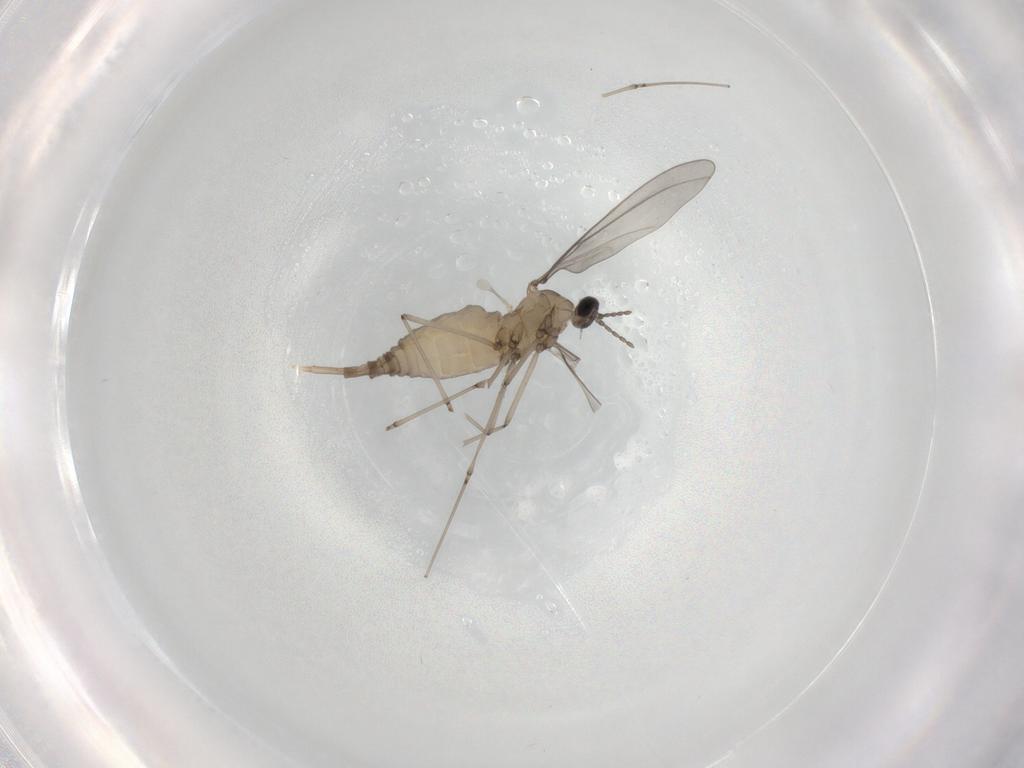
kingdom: Animalia
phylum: Arthropoda
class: Insecta
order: Diptera
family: Cecidomyiidae
